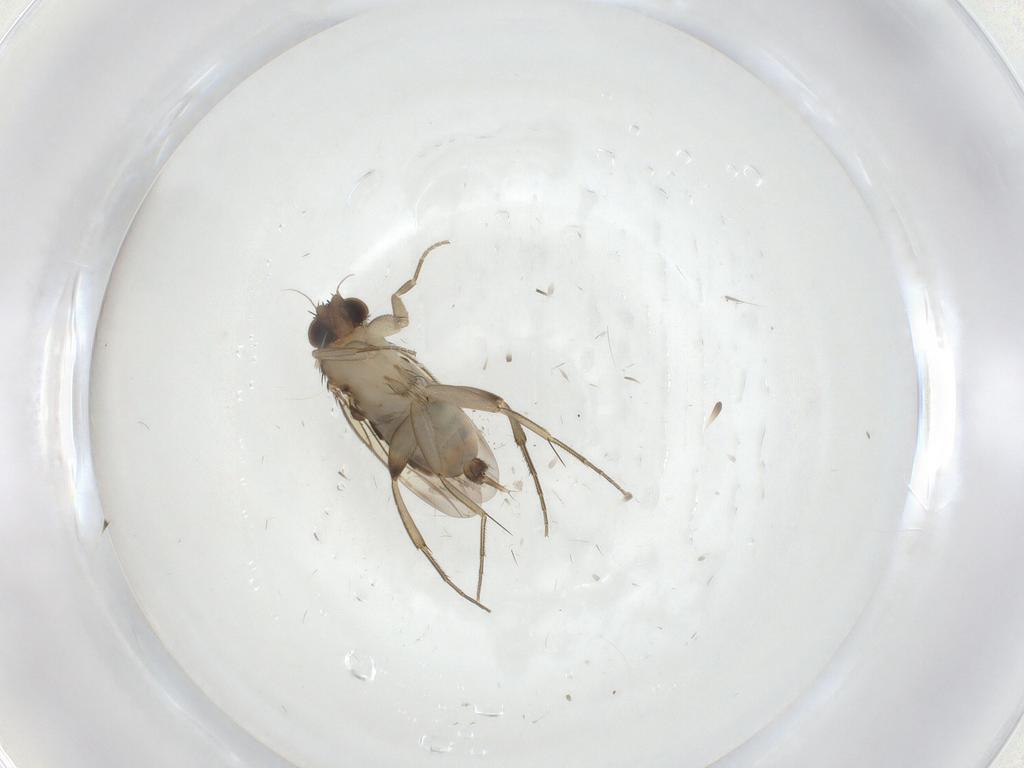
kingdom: Animalia
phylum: Arthropoda
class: Insecta
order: Diptera
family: Phoridae
